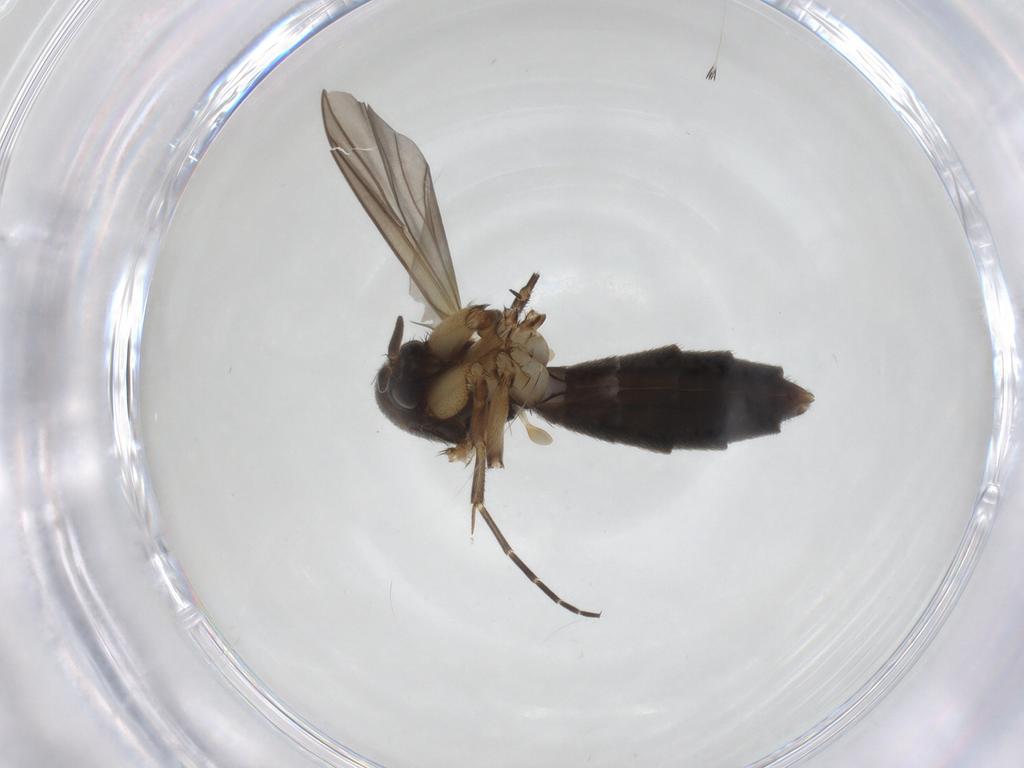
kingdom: Animalia
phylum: Arthropoda
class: Insecta
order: Diptera
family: Mycetophilidae
